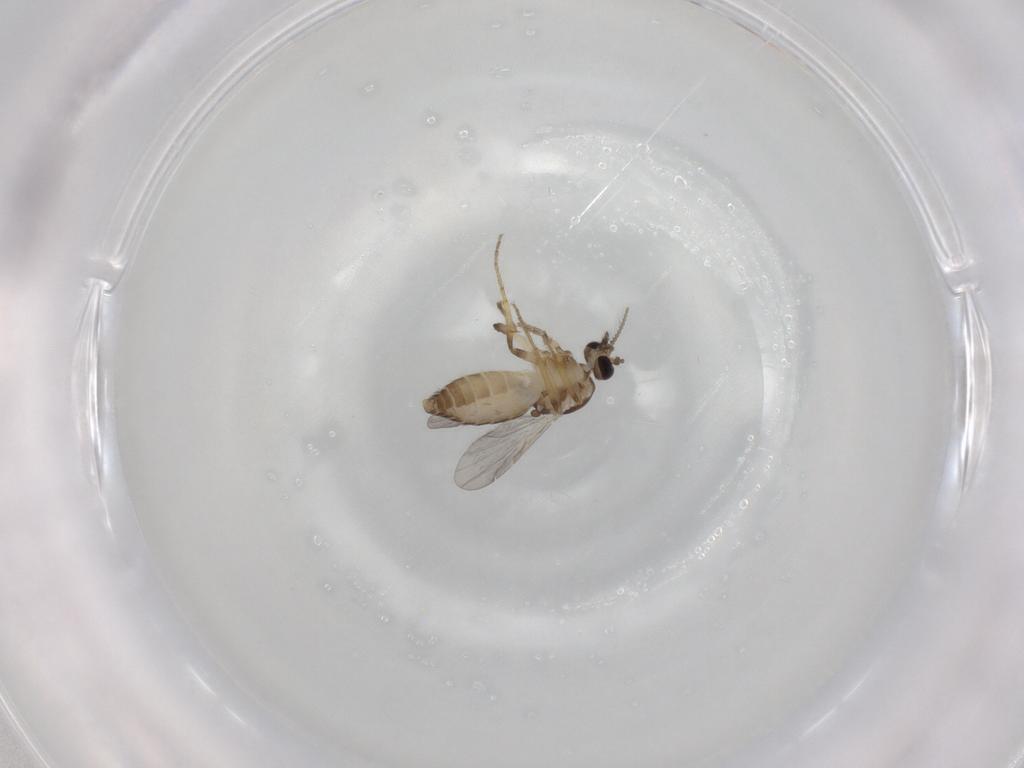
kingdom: Animalia
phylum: Arthropoda
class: Insecta
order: Diptera
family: Ceratopogonidae
